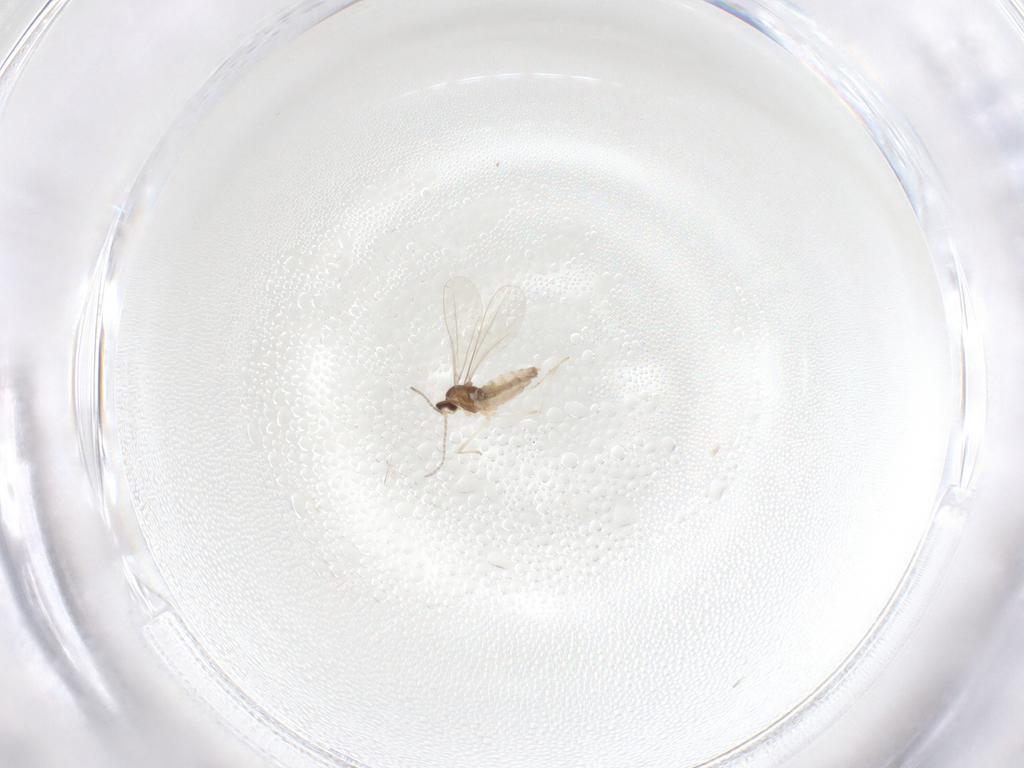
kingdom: Animalia
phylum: Arthropoda
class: Insecta
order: Diptera
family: Cecidomyiidae
